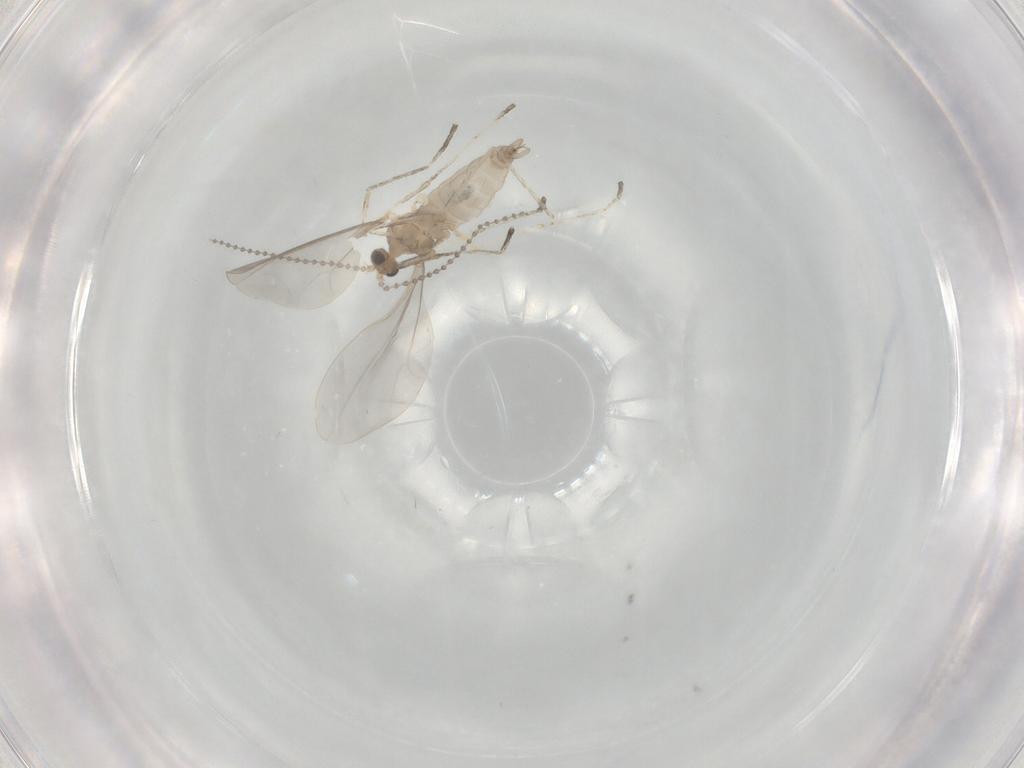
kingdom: Animalia
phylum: Arthropoda
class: Insecta
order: Diptera
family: Cecidomyiidae
